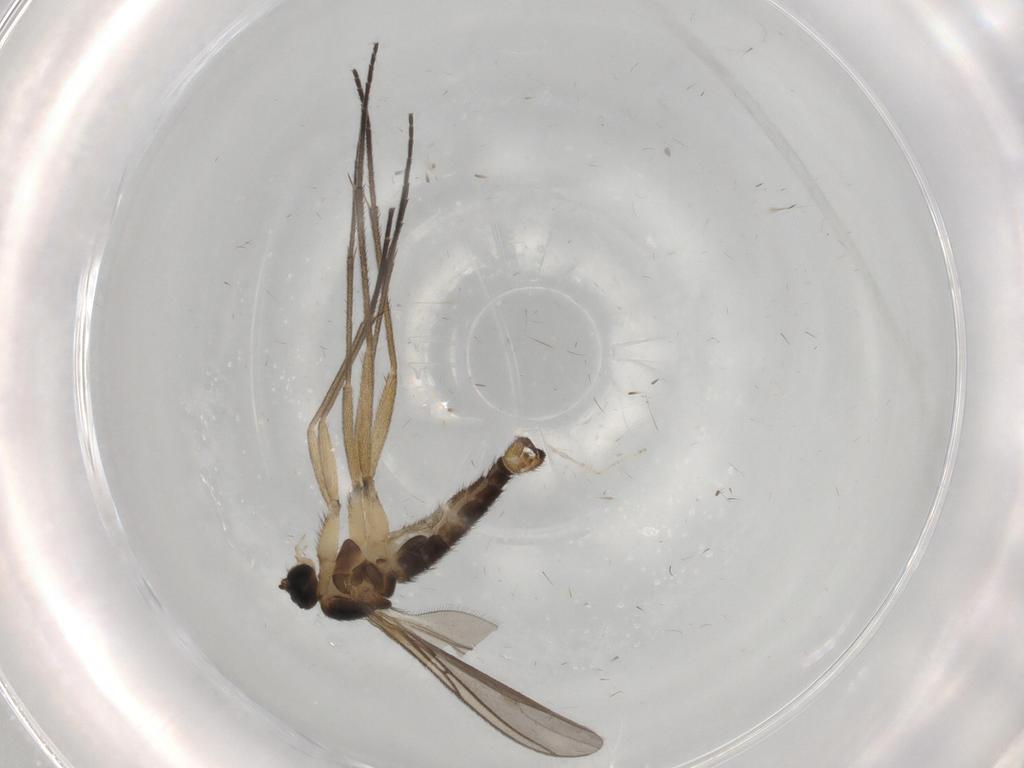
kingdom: Animalia
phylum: Arthropoda
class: Insecta
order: Diptera
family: Sciaridae
